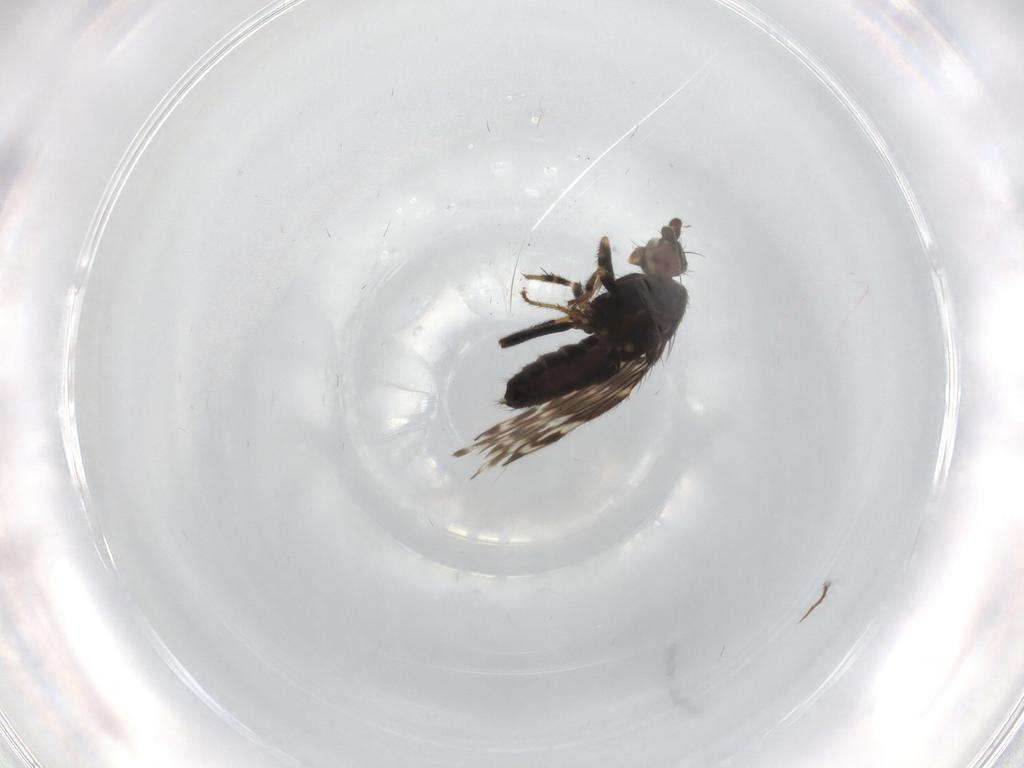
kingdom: Animalia
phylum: Arthropoda
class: Insecta
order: Diptera
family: Sphaeroceridae
